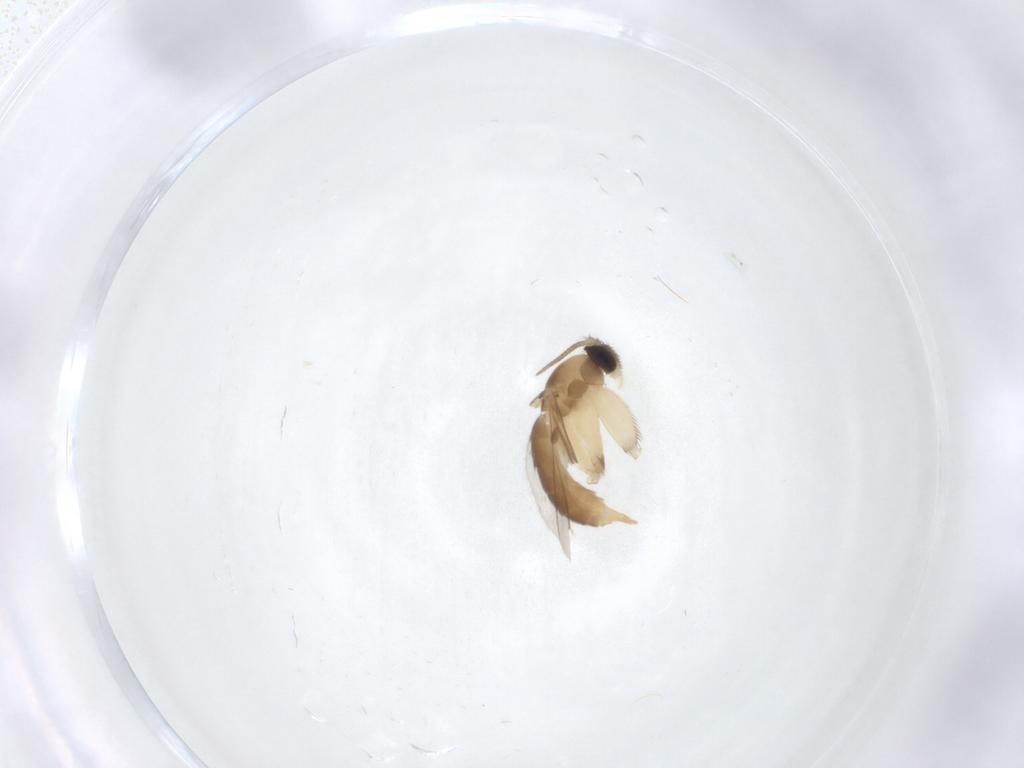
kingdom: Animalia
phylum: Arthropoda
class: Insecta
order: Diptera
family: Mycetophilidae
